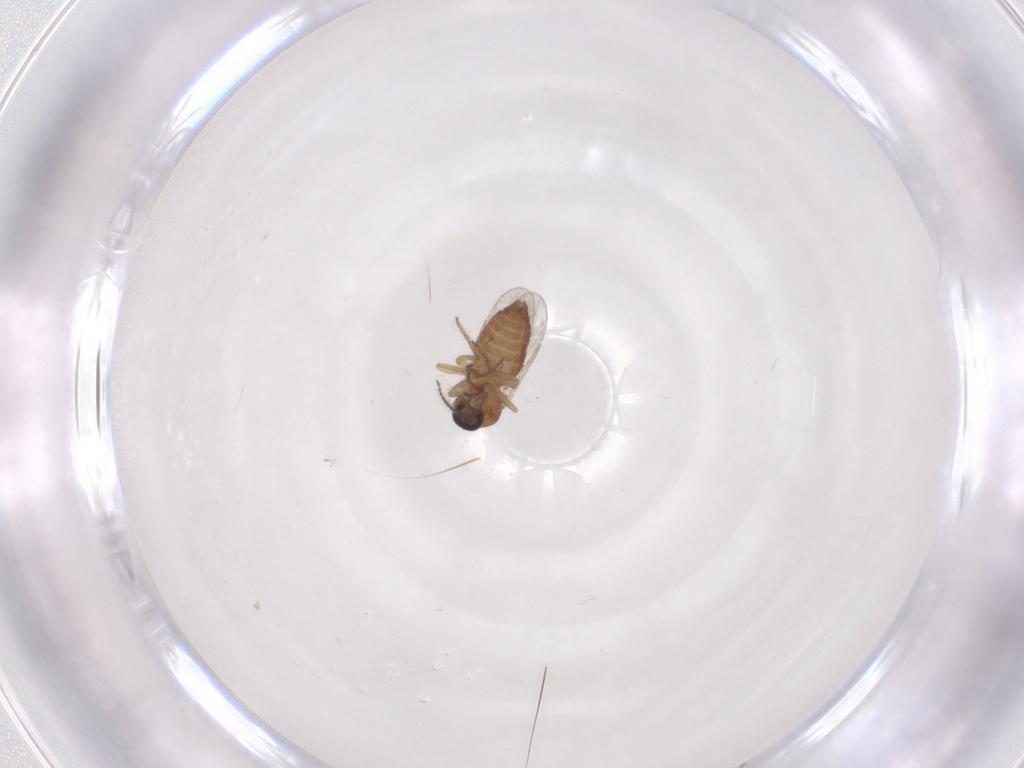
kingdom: Animalia
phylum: Arthropoda
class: Insecta
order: Diptera
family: Ceratopogonidae
